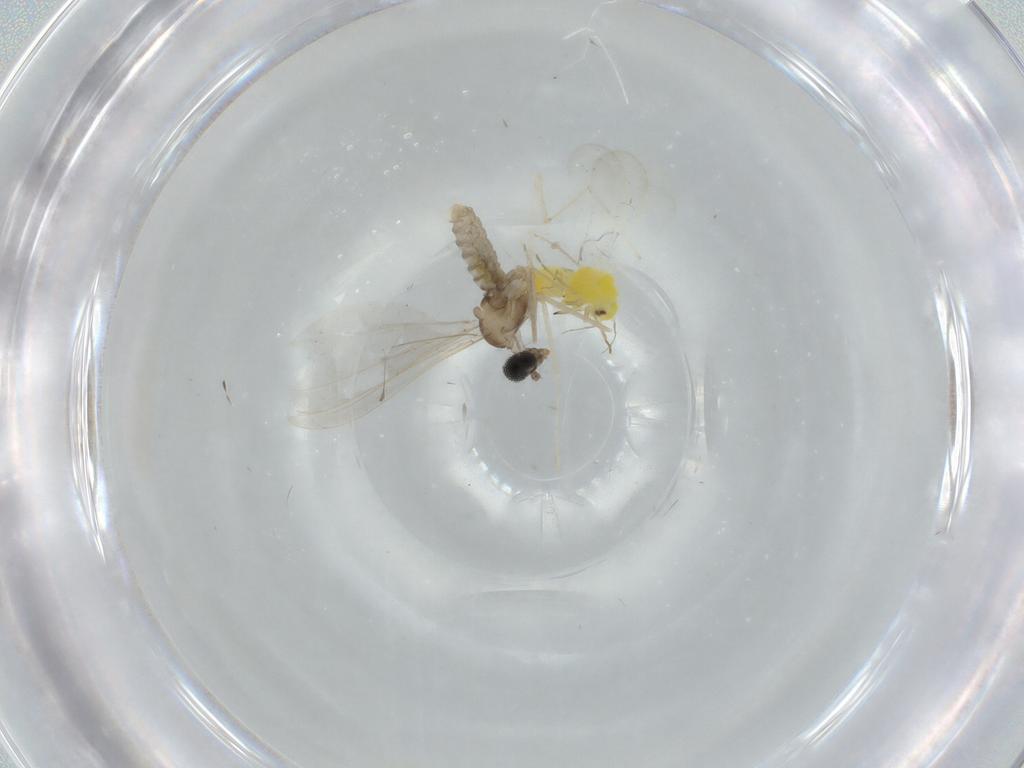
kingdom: Animalia
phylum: Arthropoda
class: Insecta
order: Diptera
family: Cecidomyiidae
